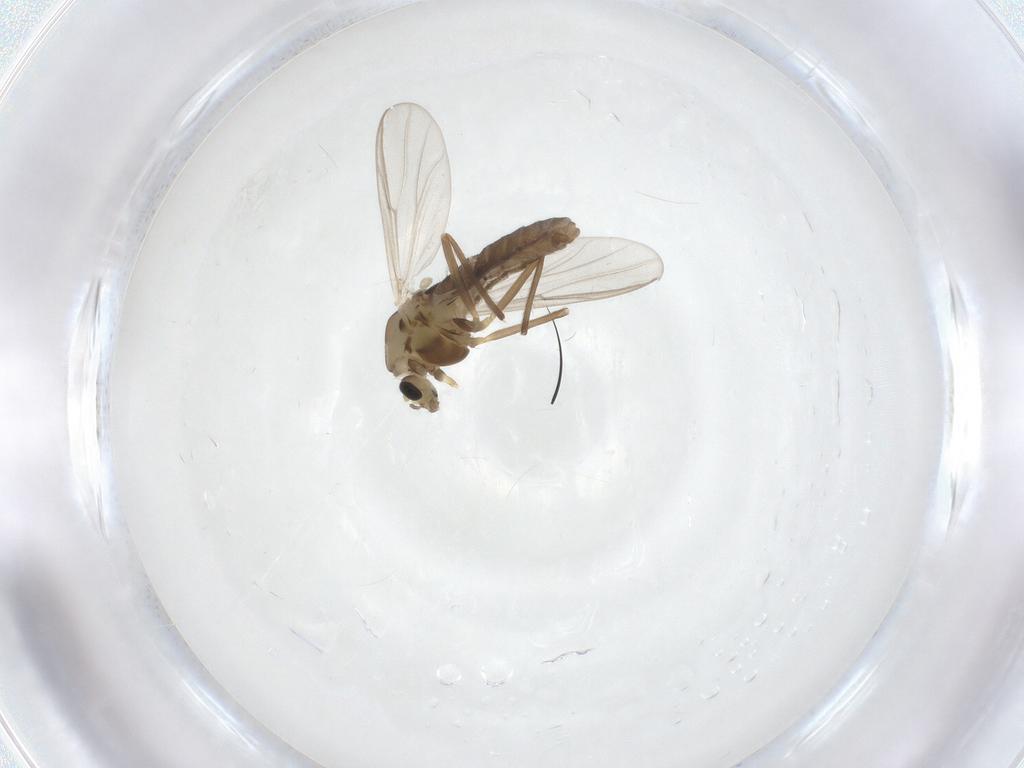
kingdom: Animalia
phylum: Arthropoda
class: Insecta
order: Diptera
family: Chironomidae
